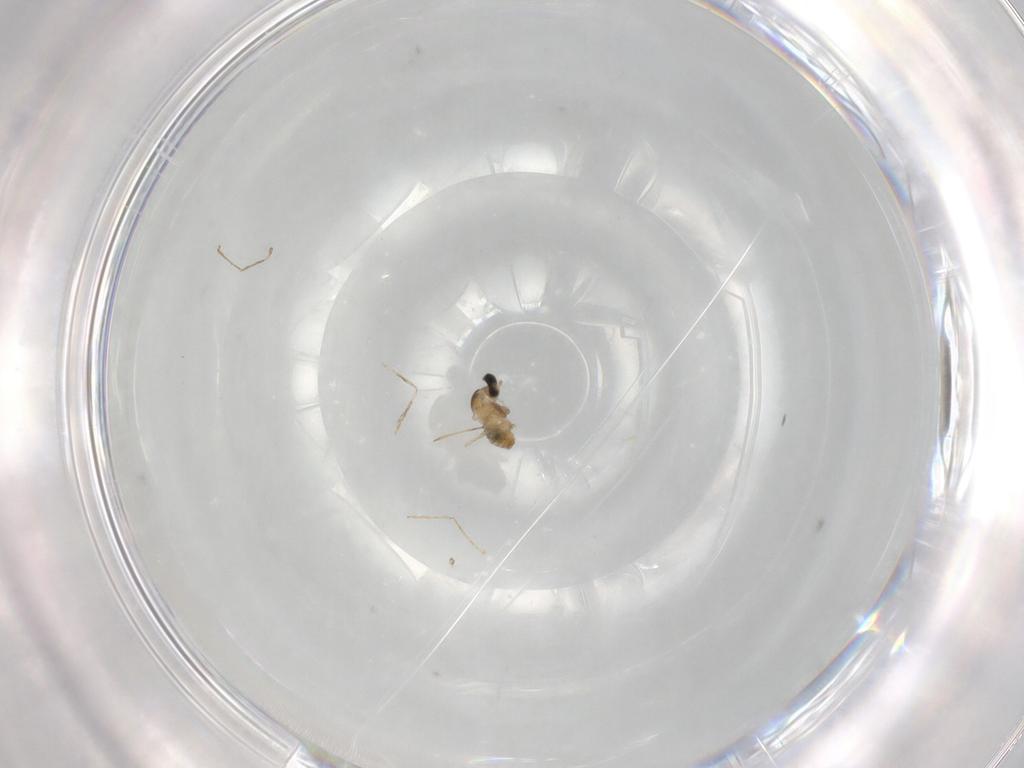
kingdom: Animalia
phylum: Arthropoda
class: Insecta
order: Diptera
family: Cecidomyiidae
